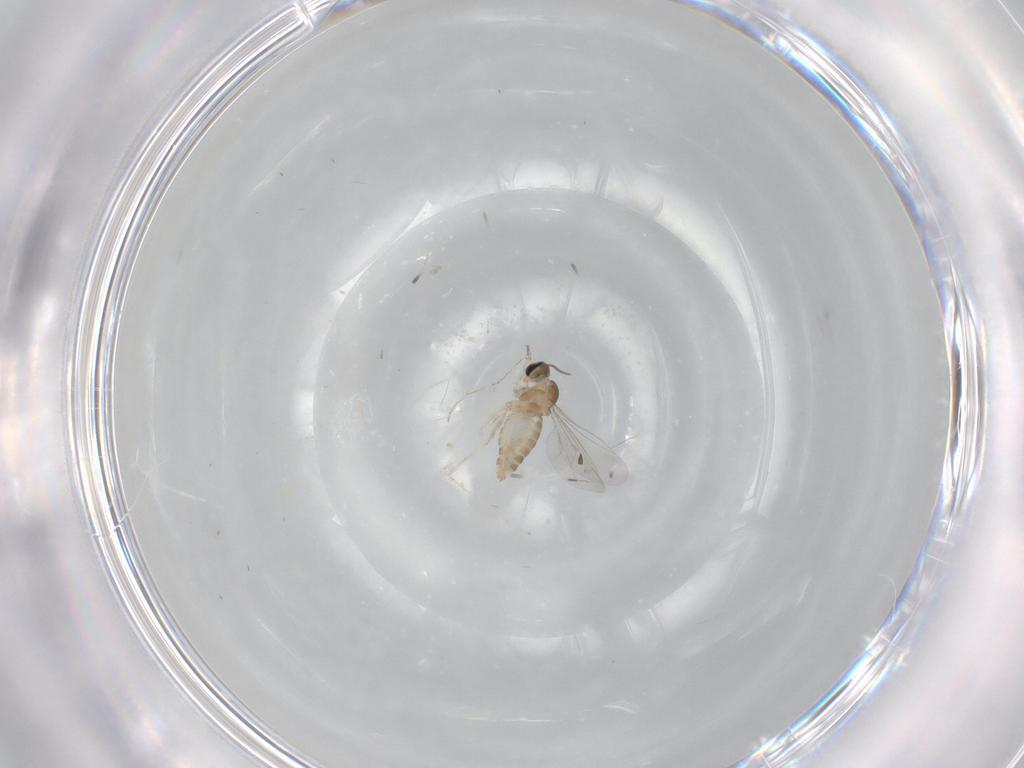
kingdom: Animalia
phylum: Arthropoda
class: Insecta
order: Diptera
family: Cecidomyiidae
